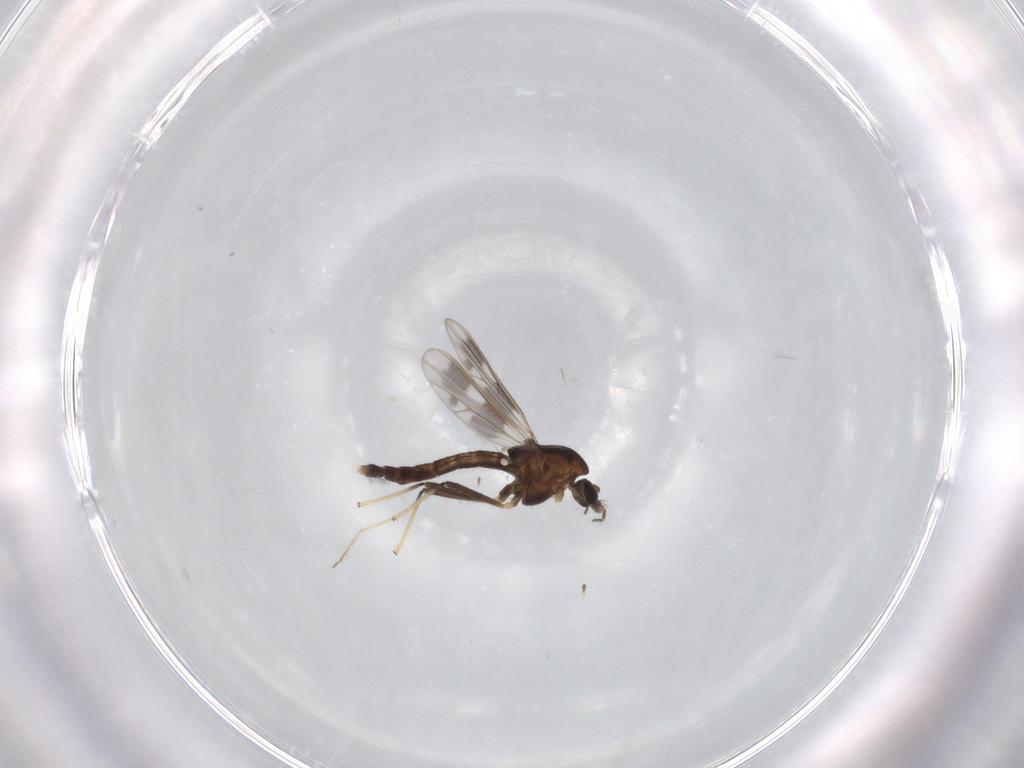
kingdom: Animalia
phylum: Arthropoda
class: Insecta
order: Diptera
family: Chironomidae
